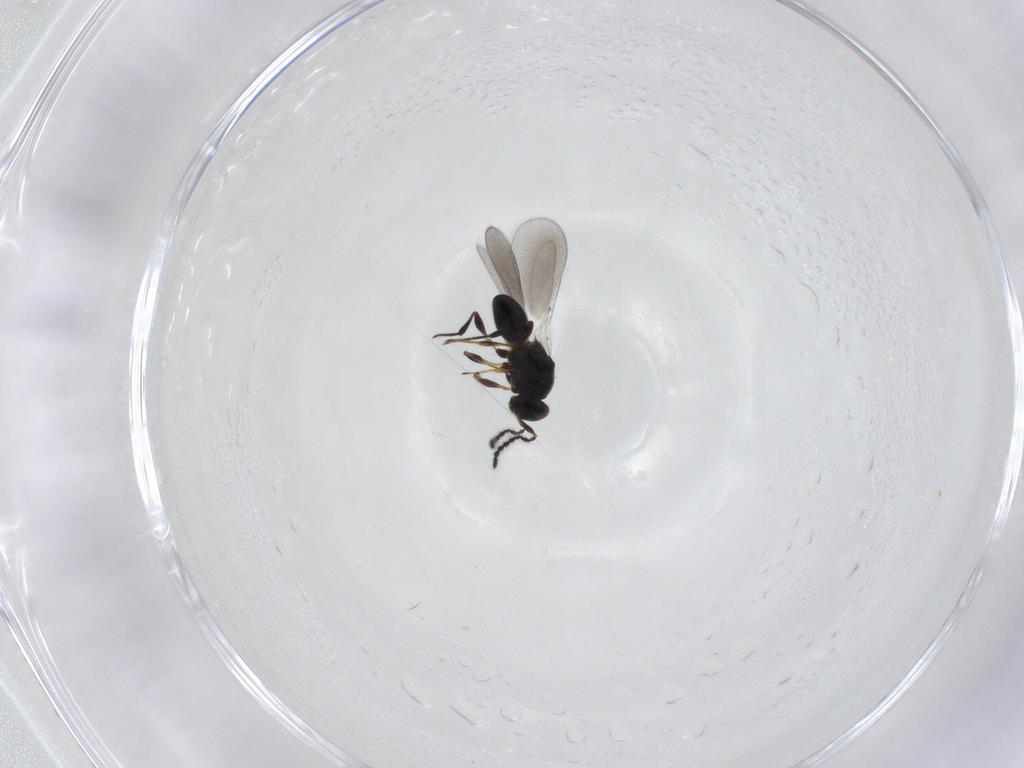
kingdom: Animalia
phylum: Arthropoda
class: Insecta
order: Hymenoptera
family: Platygastridae
